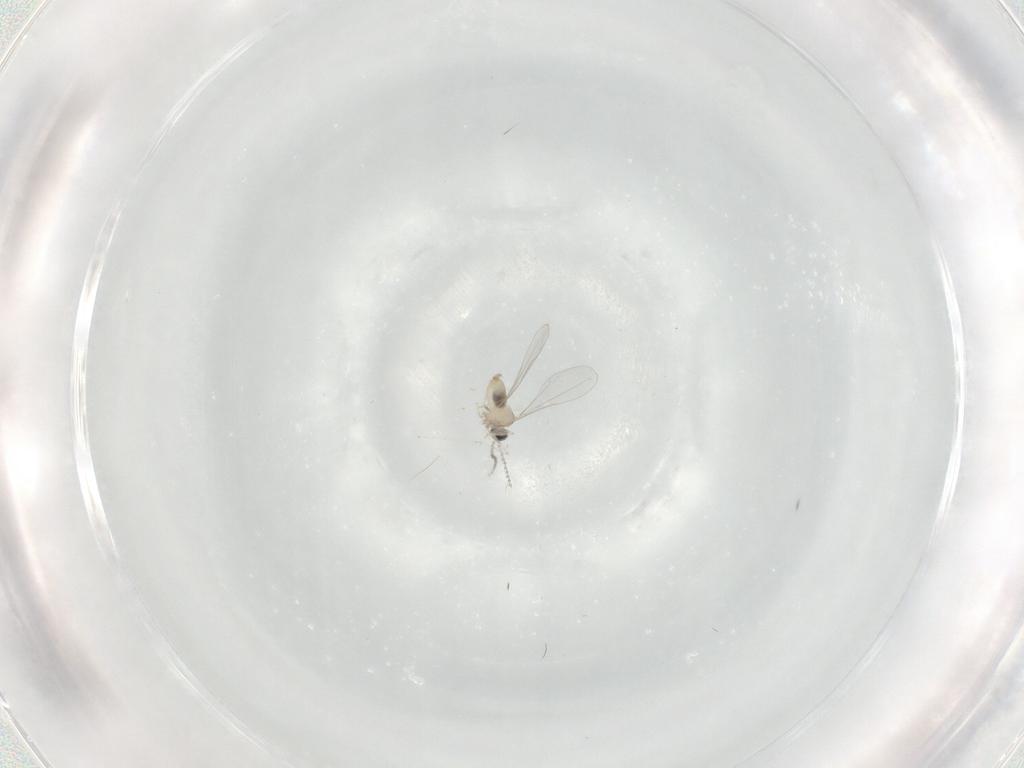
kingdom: Animalia
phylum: Arthropoda
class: Insecta
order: Diptera
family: Cecidomyiidae
